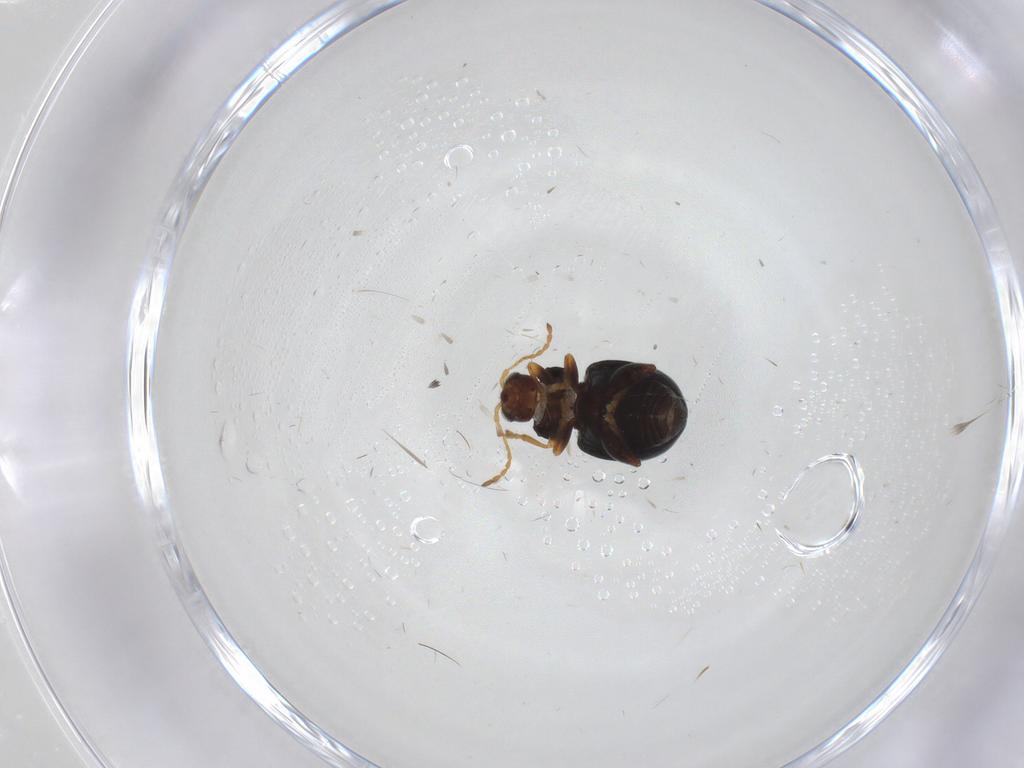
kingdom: Animalia
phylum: Arthropoda
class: Insecta
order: Coleoptera
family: Chrysomelidae
